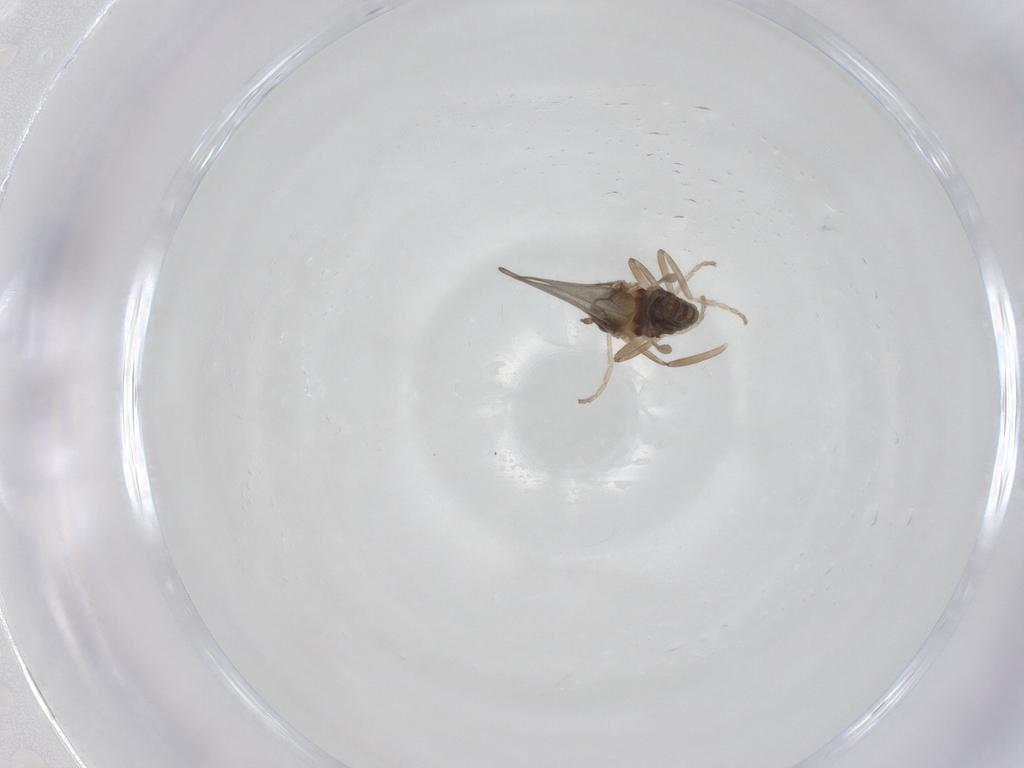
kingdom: Animalia
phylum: Arthropoda
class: Insecta
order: Diptera
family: Cecidomyiidae
